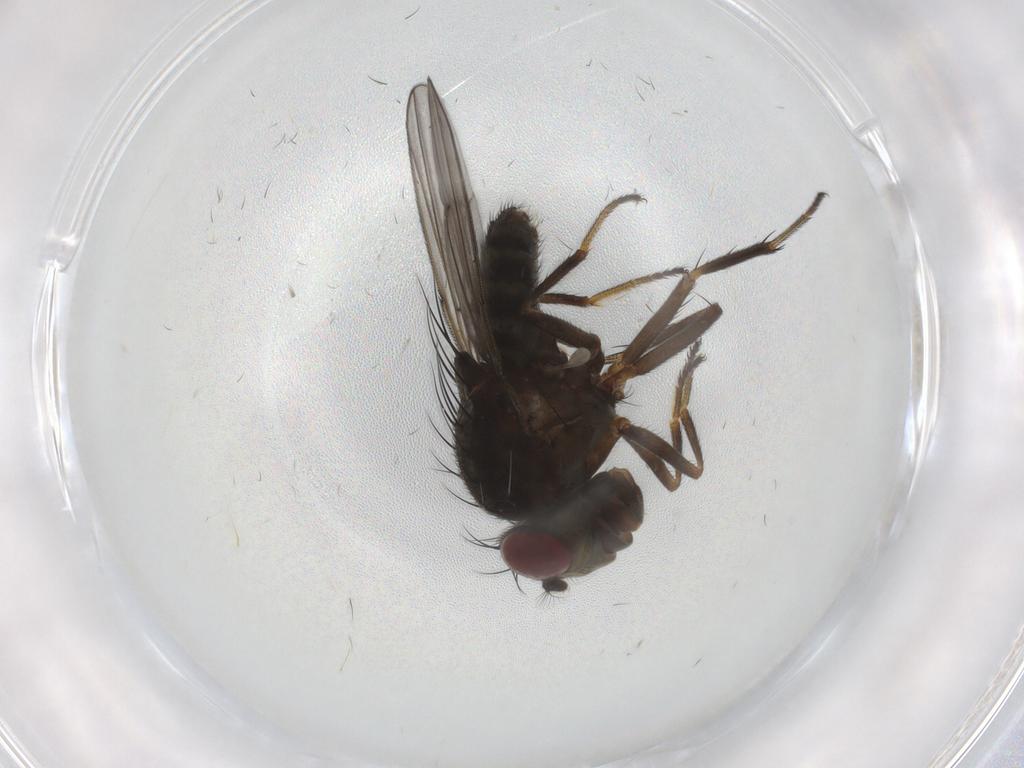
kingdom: Animalia
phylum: Arthropoda
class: Insecta
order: Diptera
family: Ephydridae
